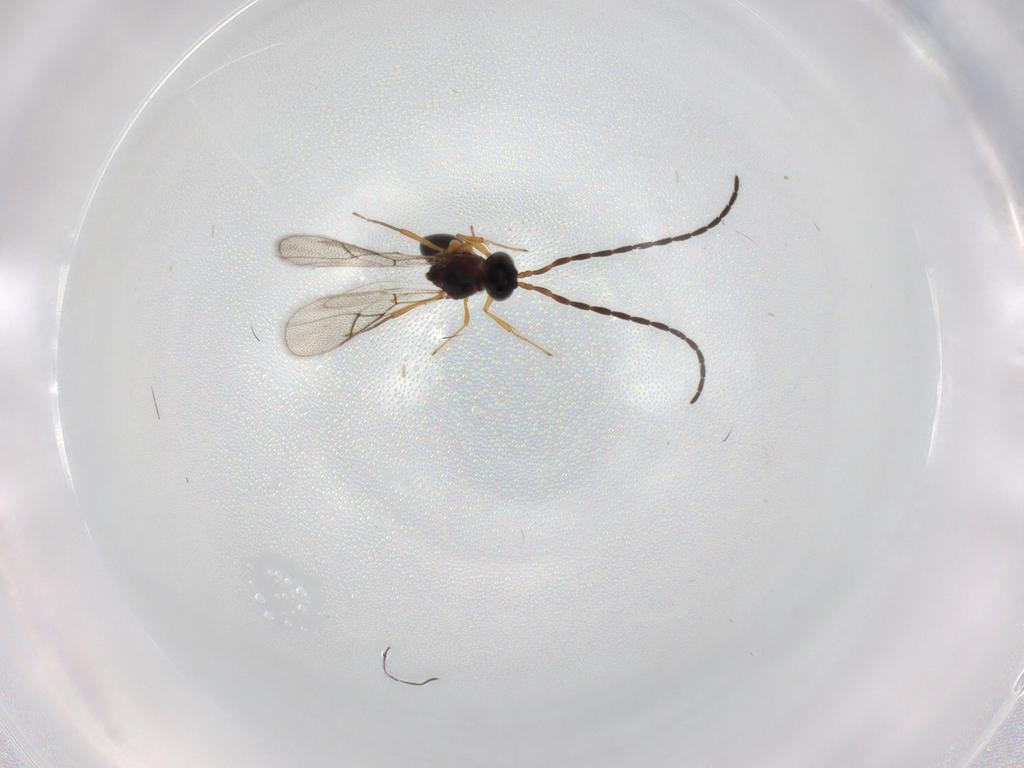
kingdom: Animalia
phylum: Arthropoda
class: Insecta
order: Hymenoptera
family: Figitidae
